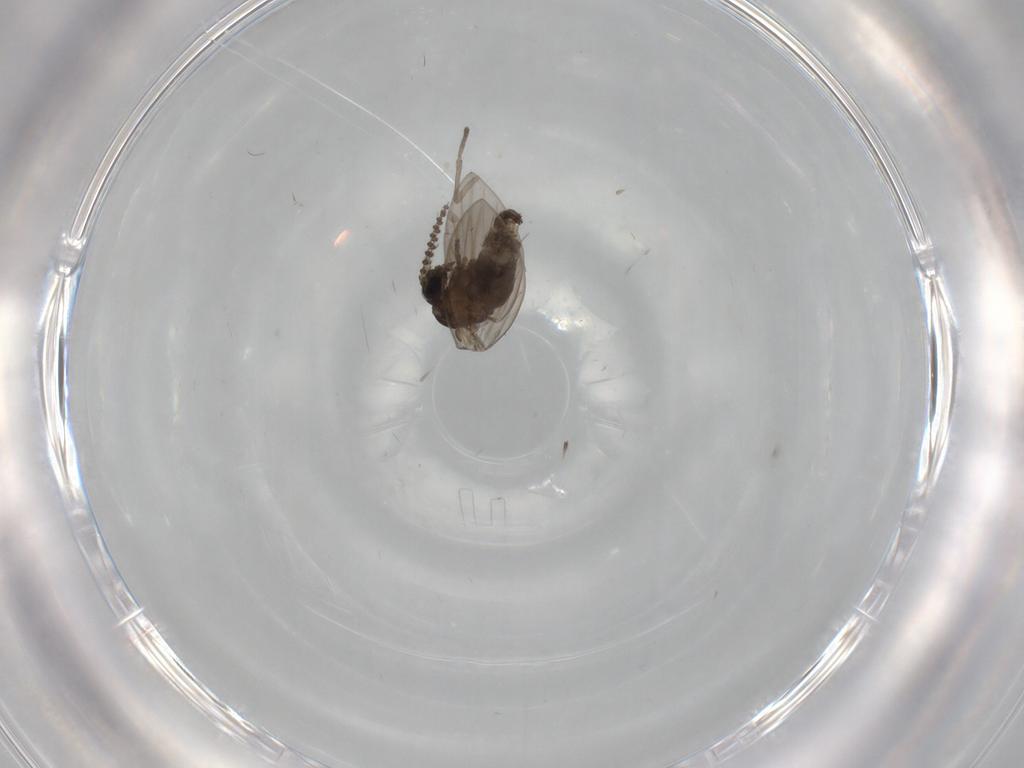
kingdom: Animalia
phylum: Arthropoda
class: Insecta
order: Diptera
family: Psychodidae
